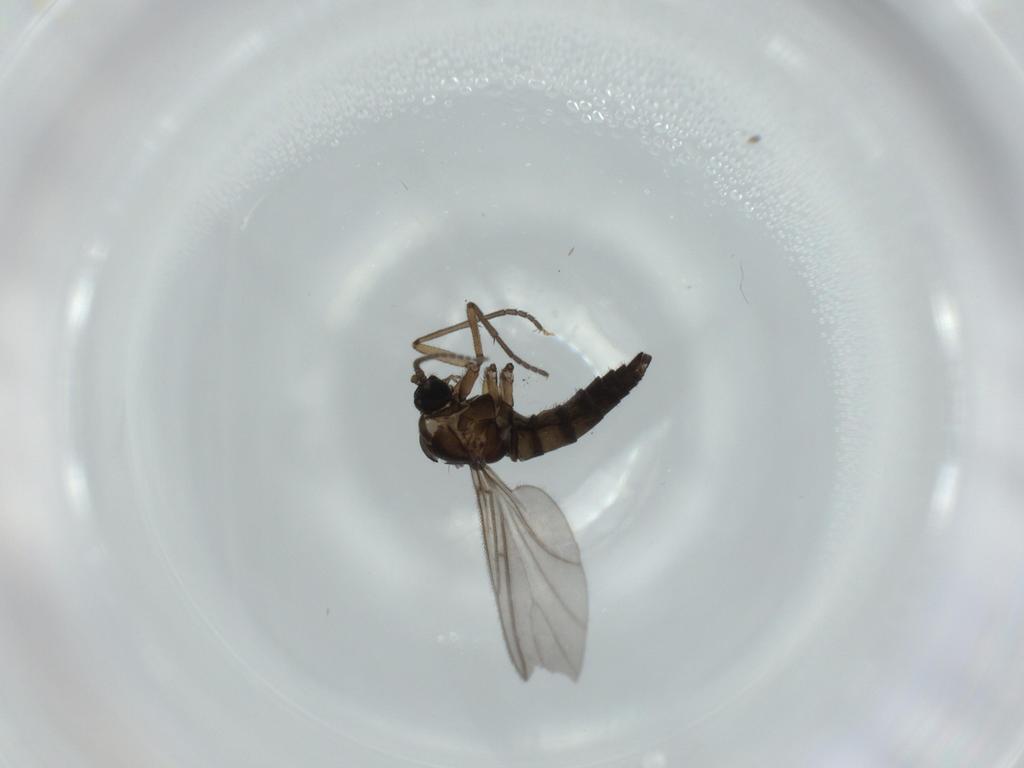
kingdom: Animalia
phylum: Arthropoda
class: Insecta
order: Diptera
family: Sciaridae
